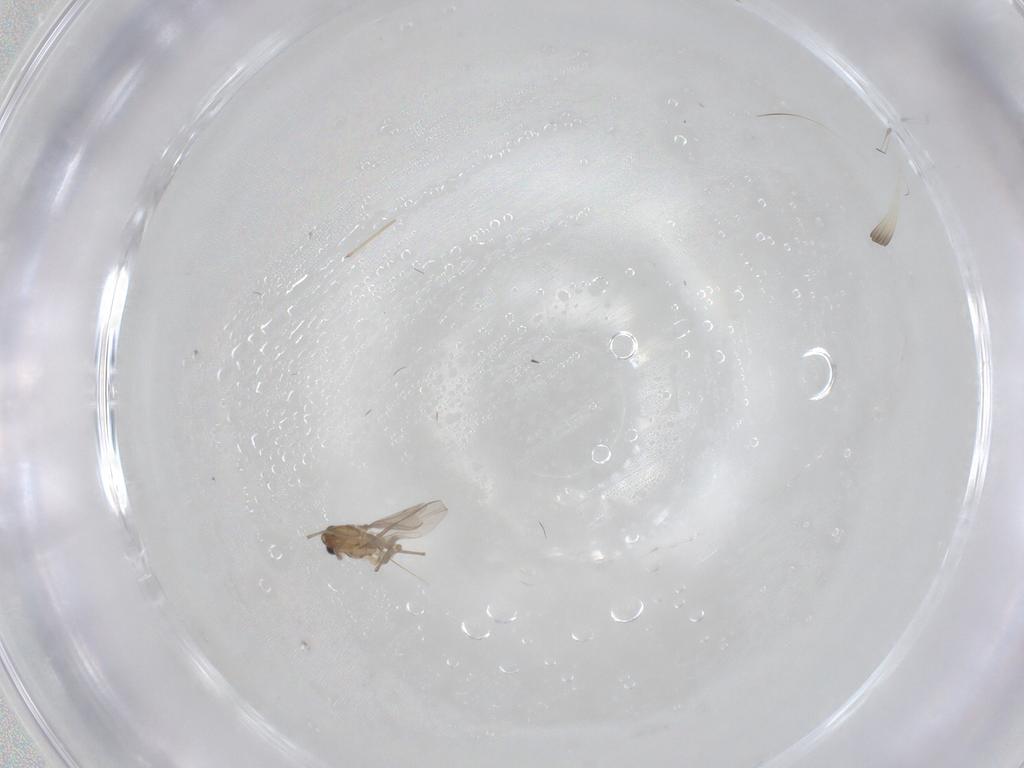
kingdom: Animalia
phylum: Arthropoda
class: Insecta
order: Diptera
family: Chironomidae
